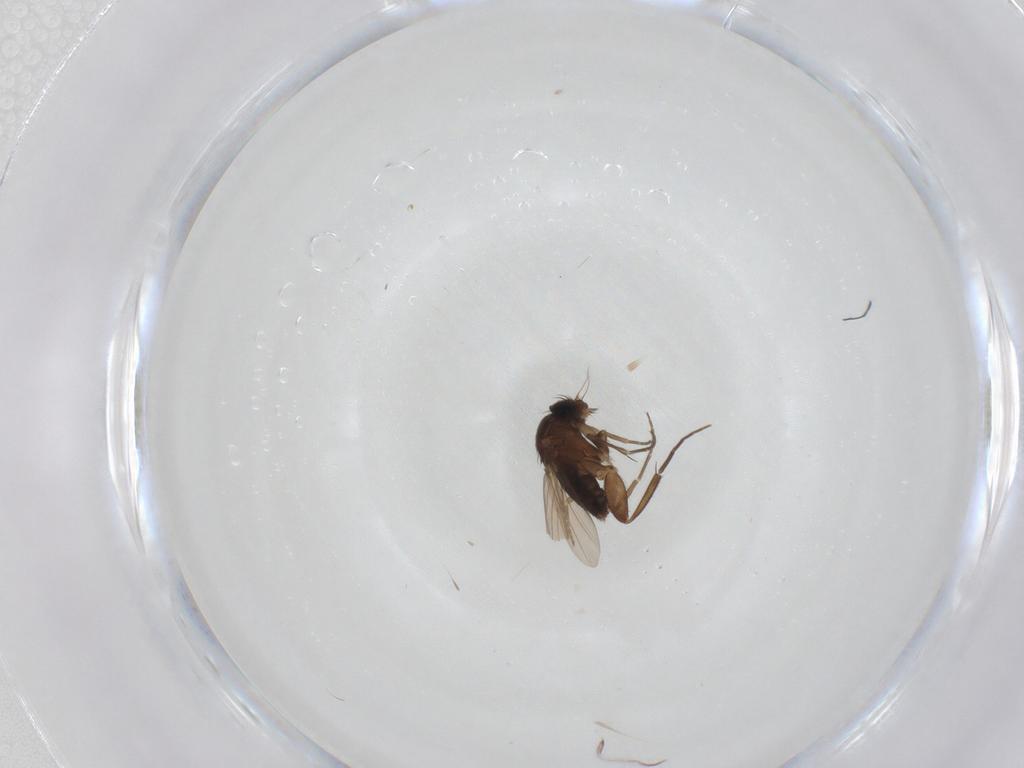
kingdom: Animalia
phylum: Arthropoda
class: Insecta
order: Diptera
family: Phoridae
